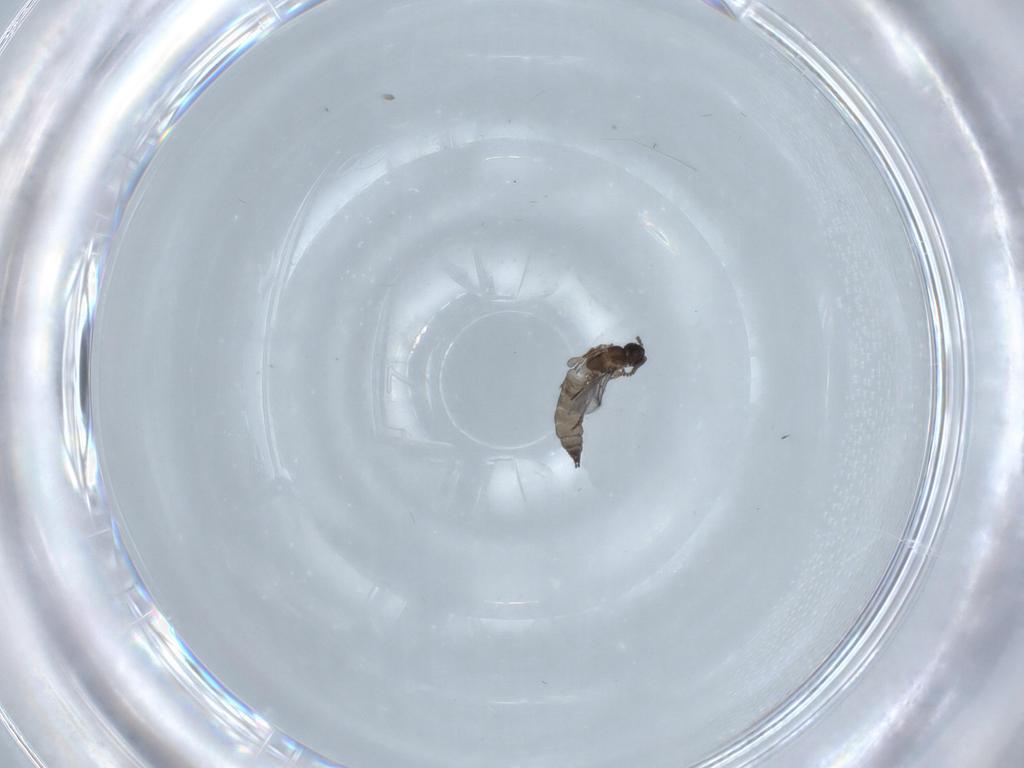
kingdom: Animalia
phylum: Arthropoda
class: Insecta
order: Diptera
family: Sciaridae
